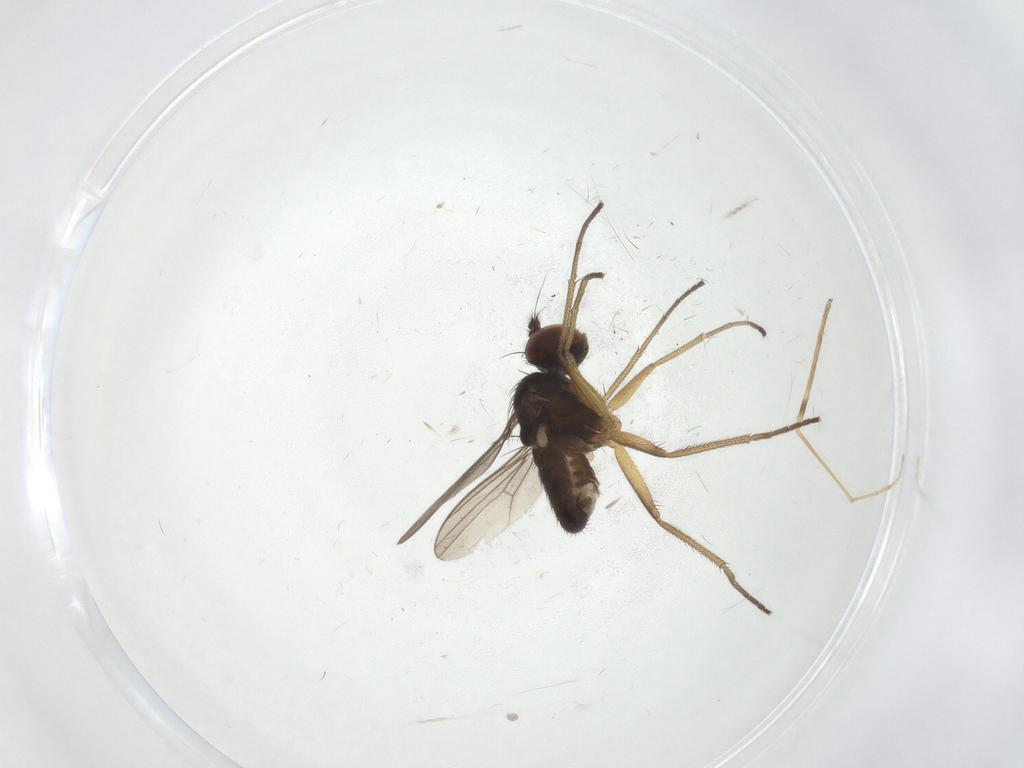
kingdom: Animalia
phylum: Arthropoda
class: Insecta
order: Diptera
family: Dolichopodidae
